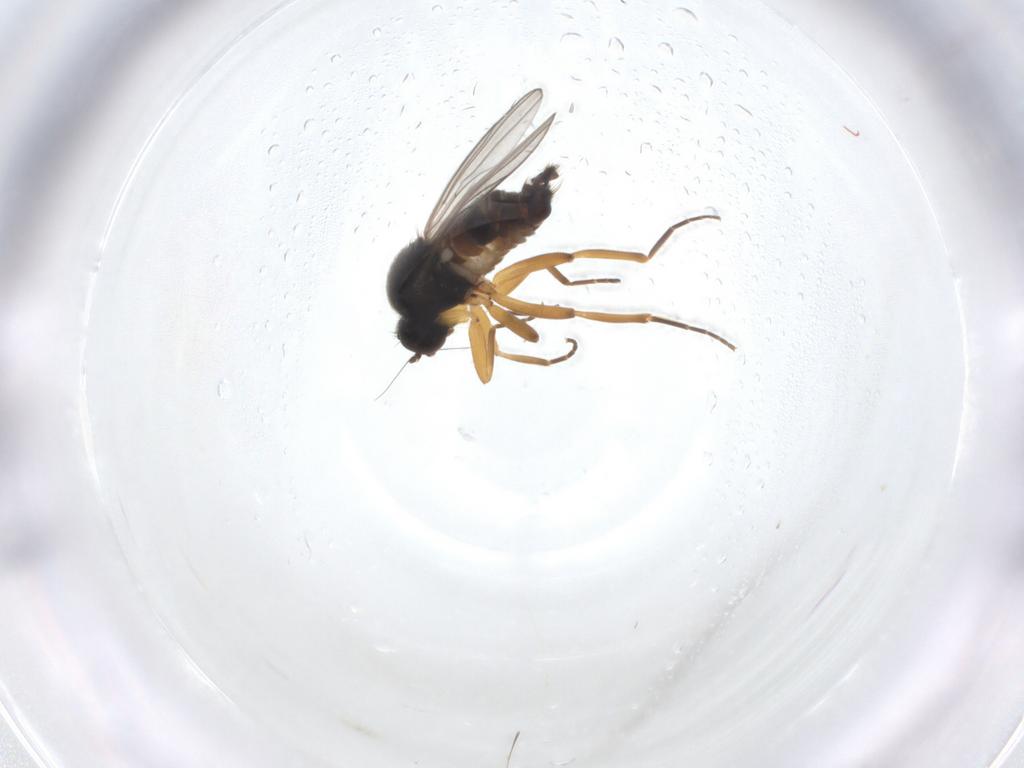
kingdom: Animalia
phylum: Arthropoda
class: Insecta
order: Diptera
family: Hybotidae
